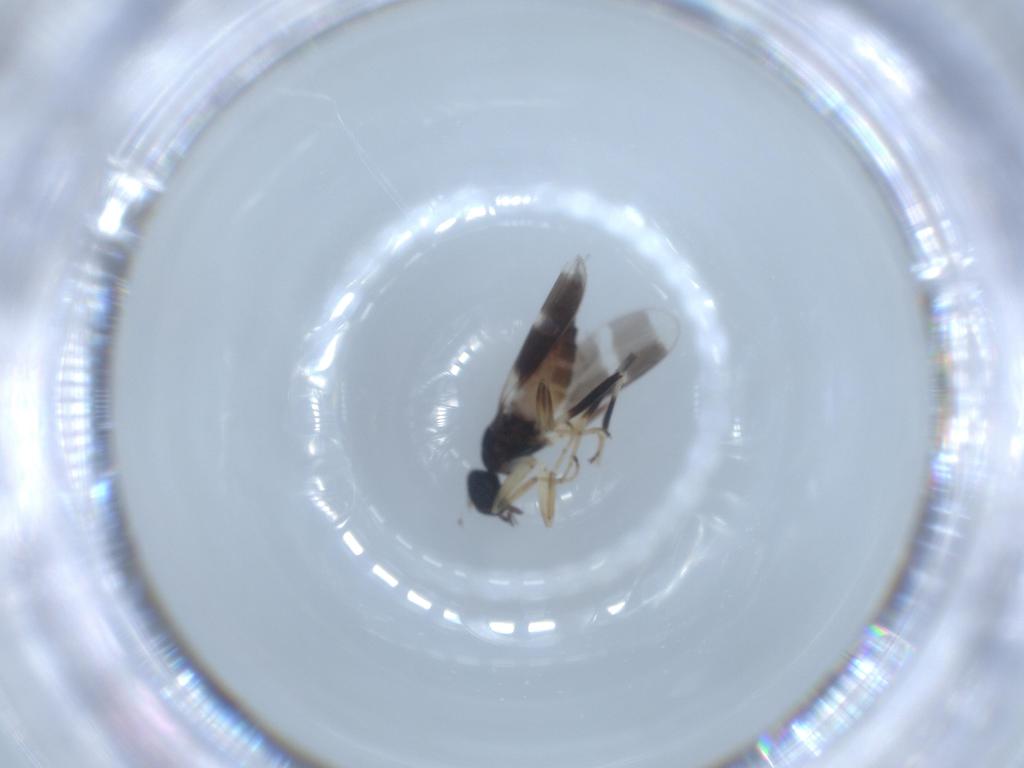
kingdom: Animalia
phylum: Arthropoda
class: Insecta
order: Diptera
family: Hybotidae
